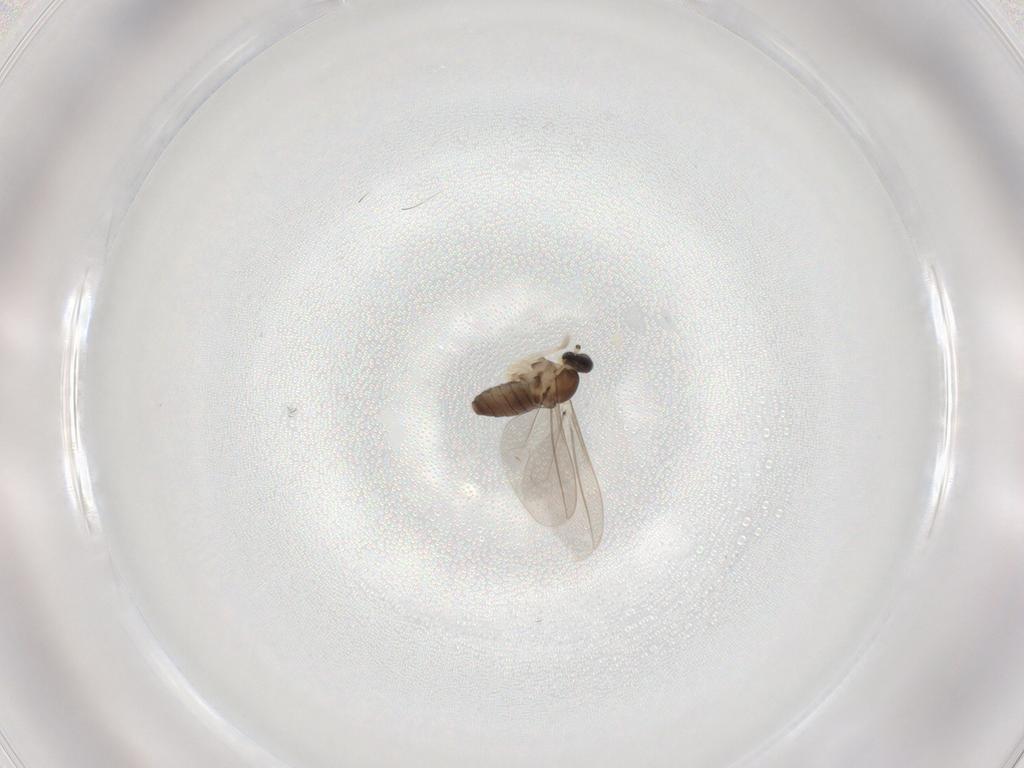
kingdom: Animalia
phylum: Arthropoda
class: Insecta
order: Diptera
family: Cecidomyiidae
